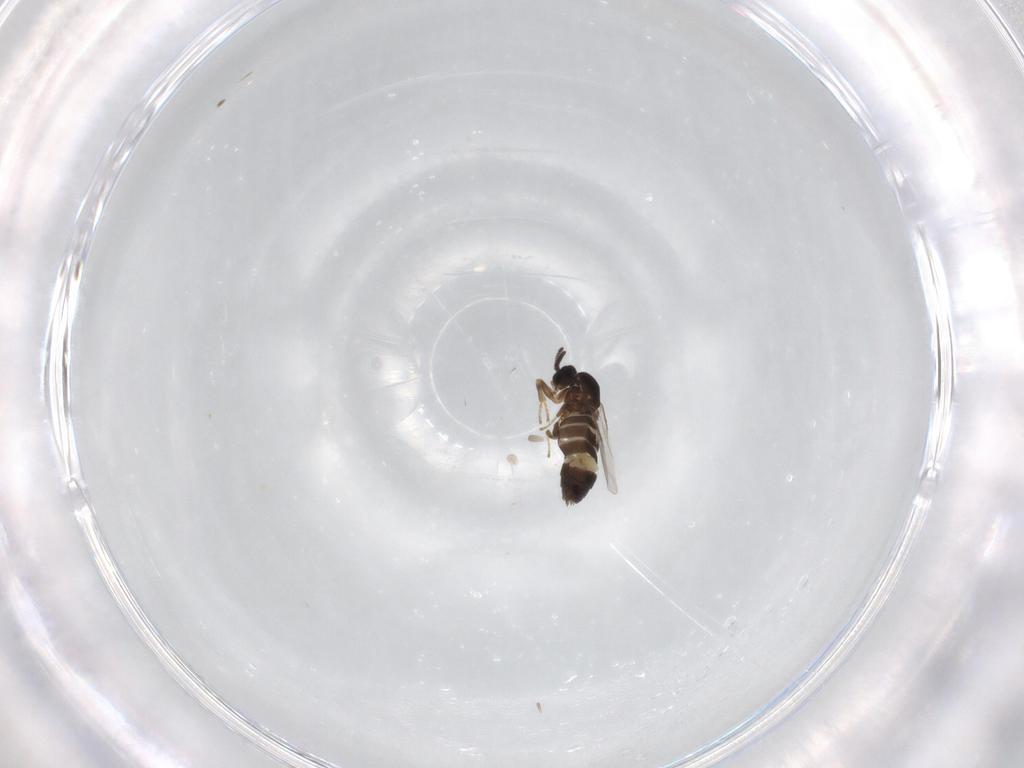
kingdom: Animalia
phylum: Arthropoda
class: Insecta
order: Diptera
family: Scatopsidae
